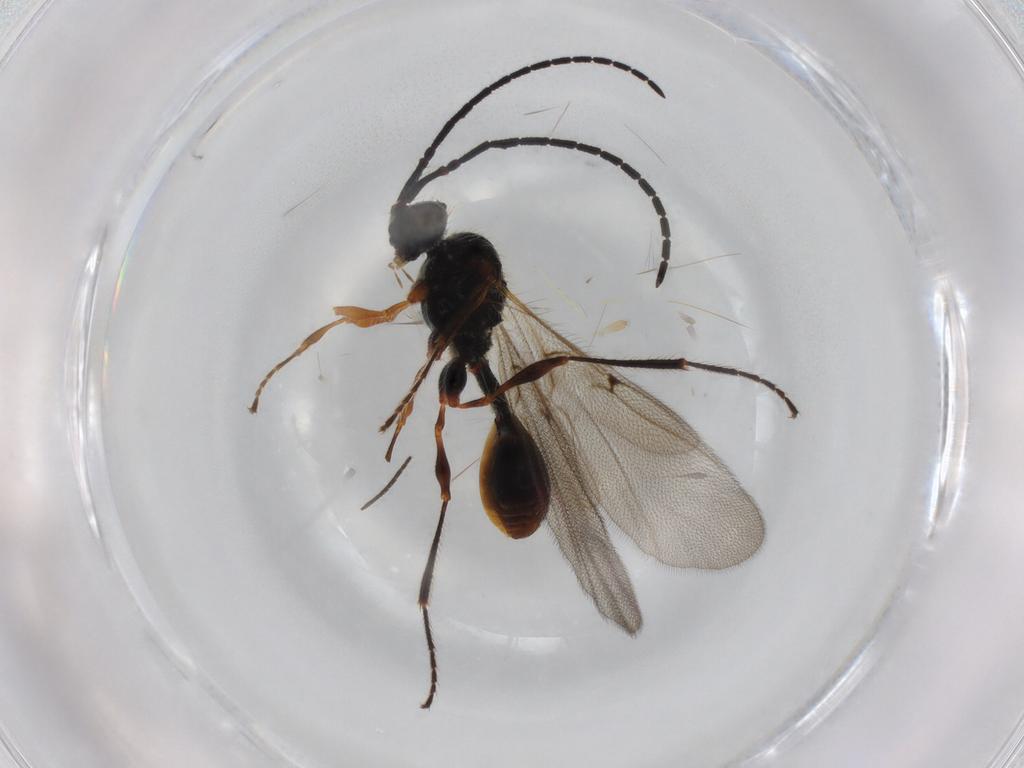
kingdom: Animalia
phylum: Arthropoda
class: Insecta
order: Hymenoptera
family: Diapriidae
